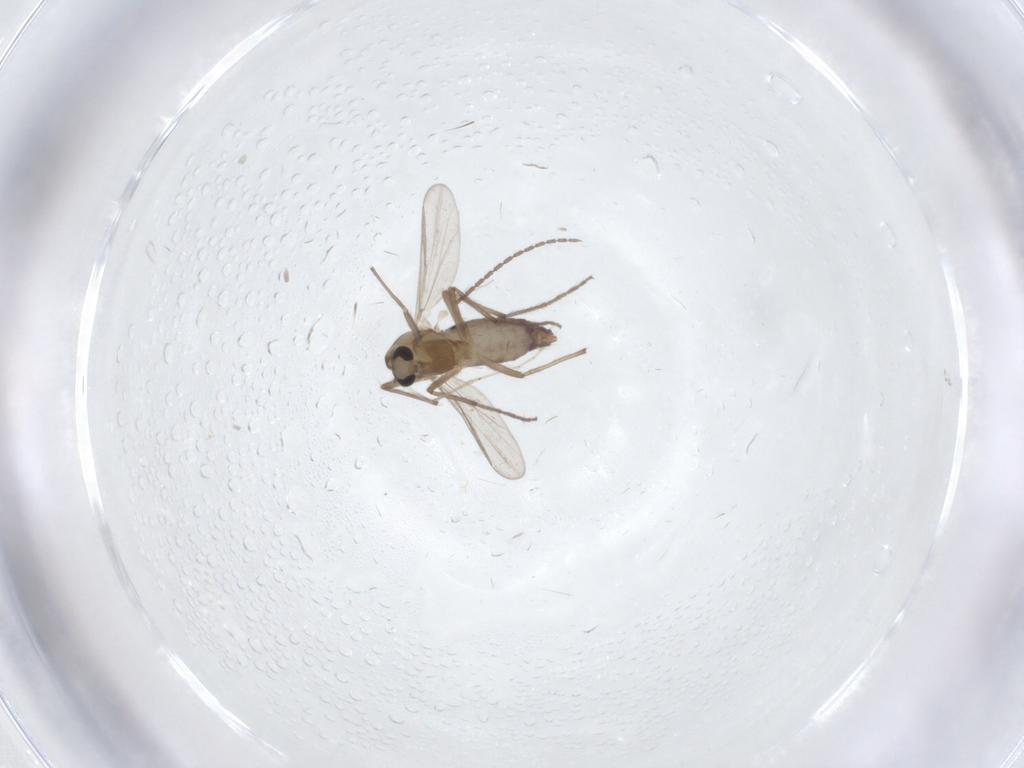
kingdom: Animalia
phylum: Arthropoda
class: Insecta
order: Diptera
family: Chironomidae
